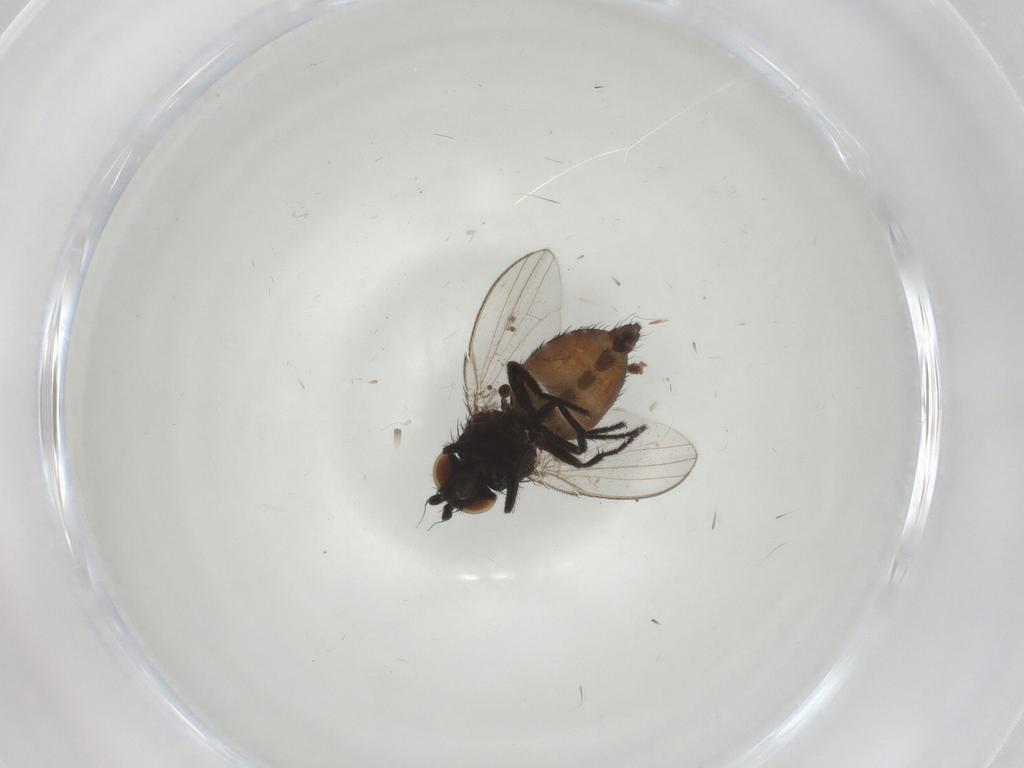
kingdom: Animalia
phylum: Arthropoda
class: Insecta
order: Diptera
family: Milichiidae
